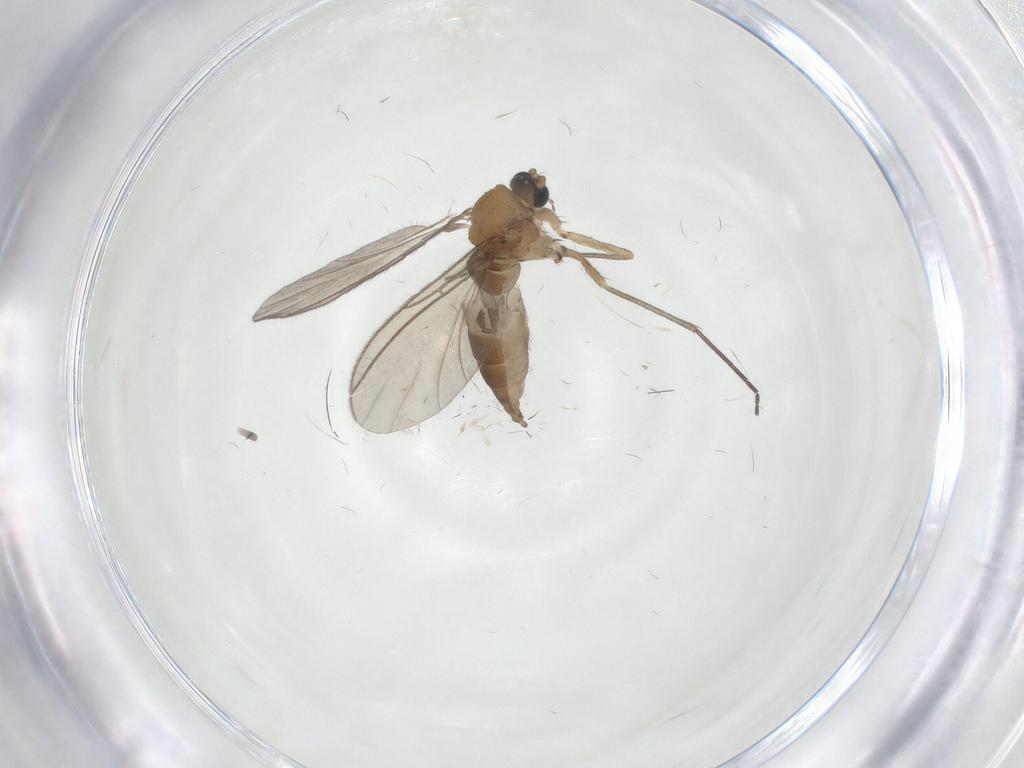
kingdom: Animalia
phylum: Arthropoda
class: Insecta
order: Diptera
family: Sciaridae
